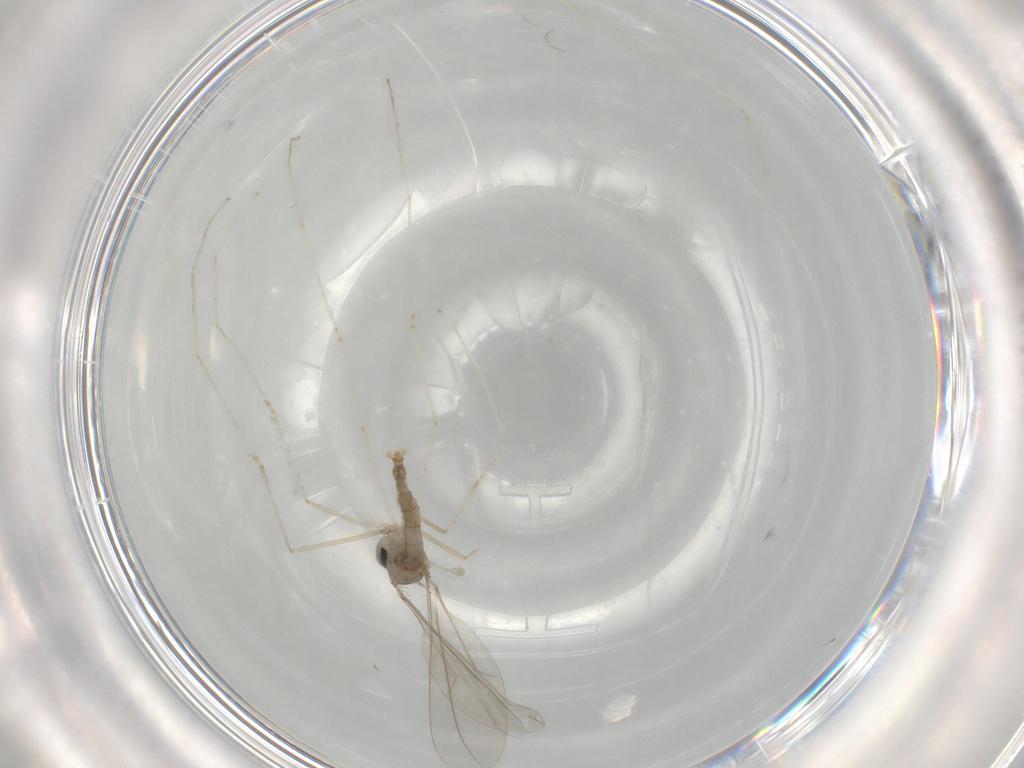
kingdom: Animalia
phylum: Arthropoda
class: Insecta
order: Diptera
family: Cecidomyiidae
